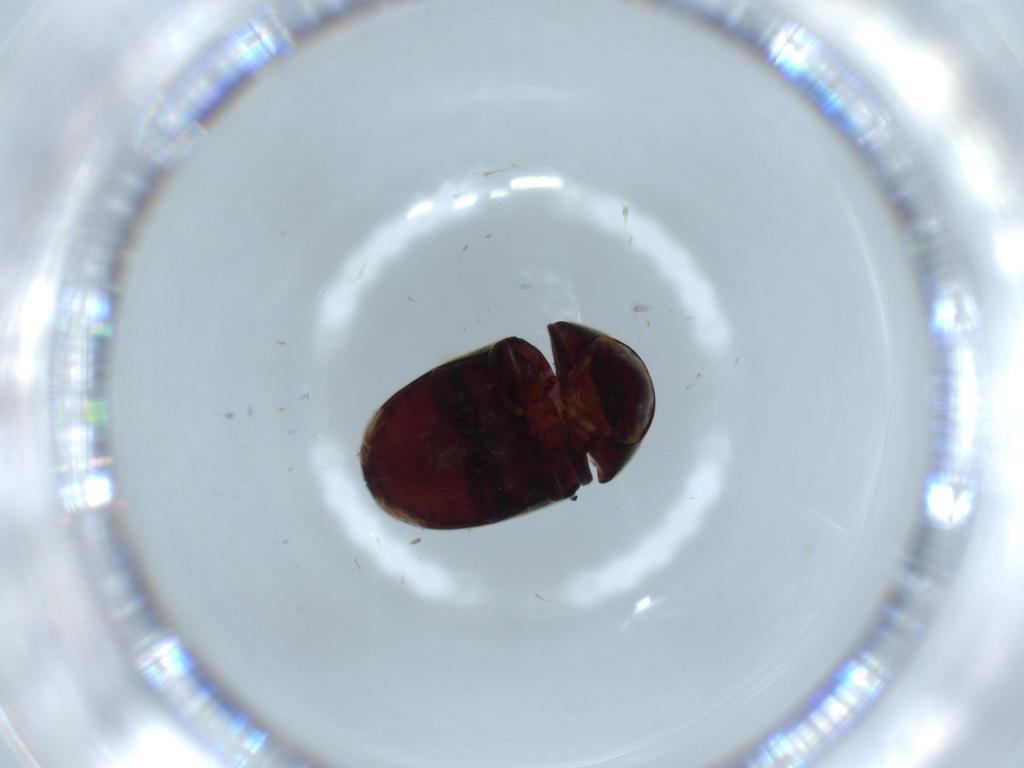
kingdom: Animalia
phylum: Arthropoda
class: Insecta
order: Coleoptera
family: Ptinidae
